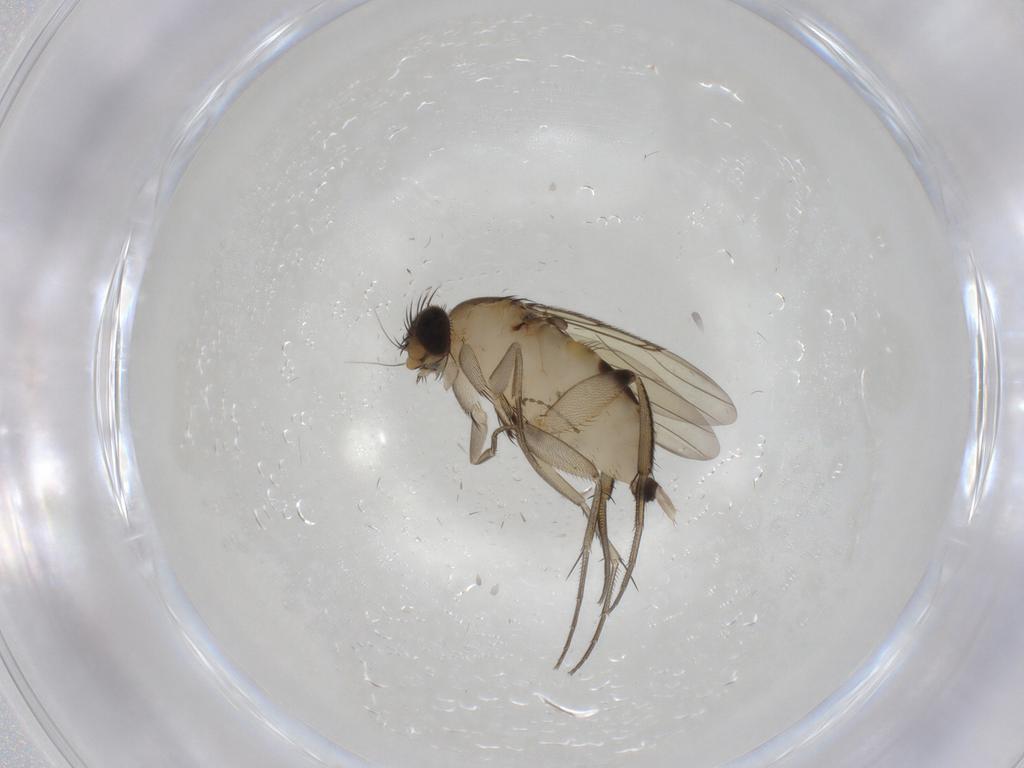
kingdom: Animalia
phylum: Arthropoda
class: Insecta
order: Diptera
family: Phoridae
